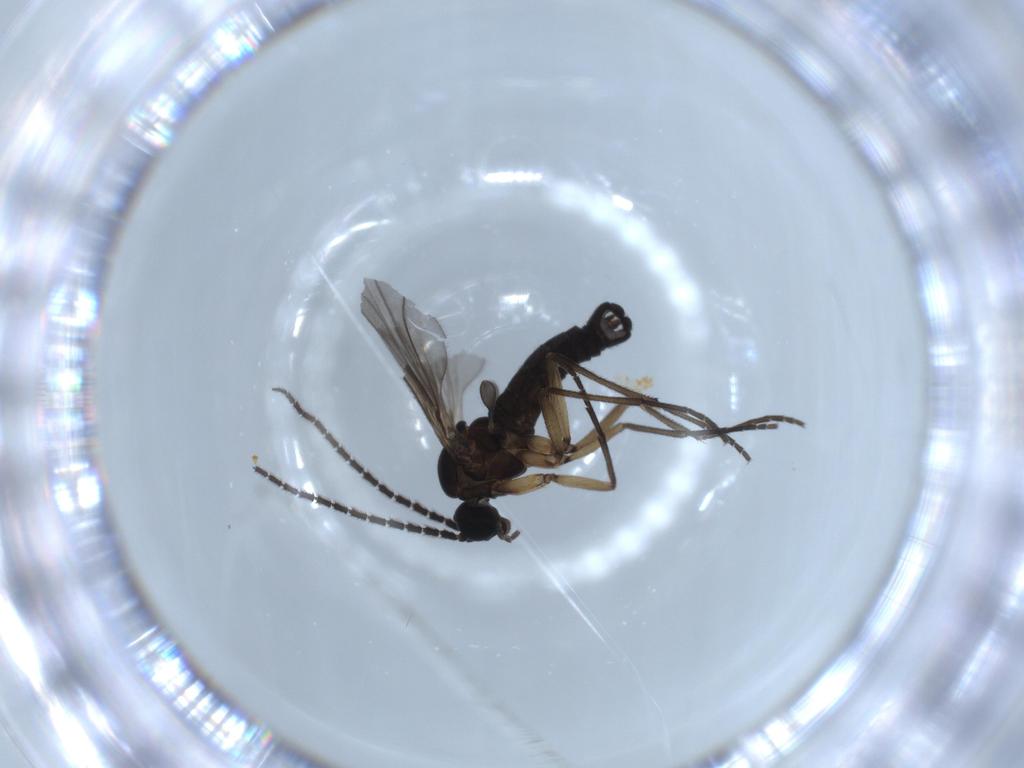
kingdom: Animalia
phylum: Arthropoda
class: Insecta
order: Diptera
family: Sciaridae
